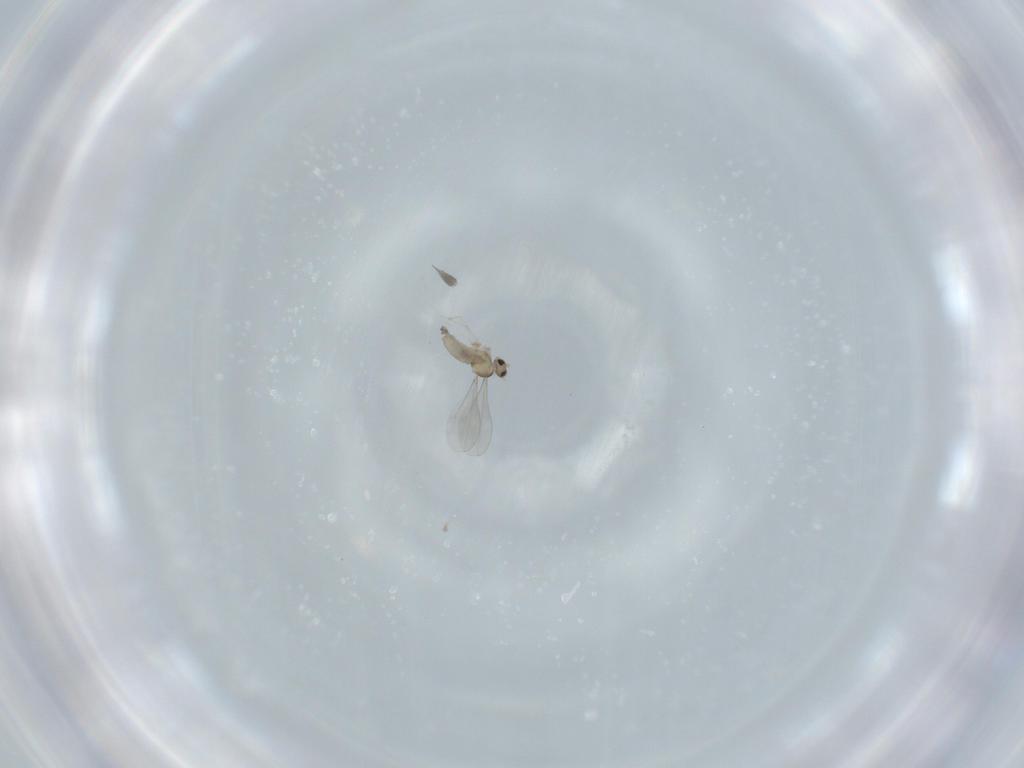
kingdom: Animalia
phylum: Arthropoda
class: Insecta
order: Diptera
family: Cecidomyiidae
